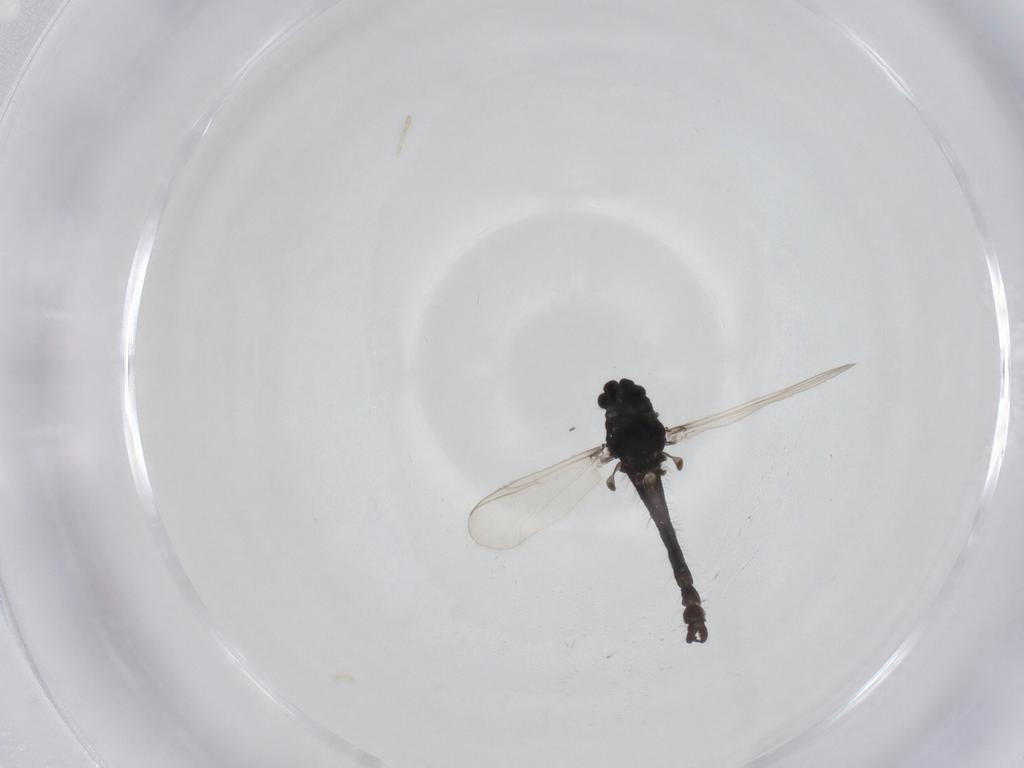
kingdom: Animalia
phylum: Arthropoda
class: Insecta
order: Diptera
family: Chironomidae
